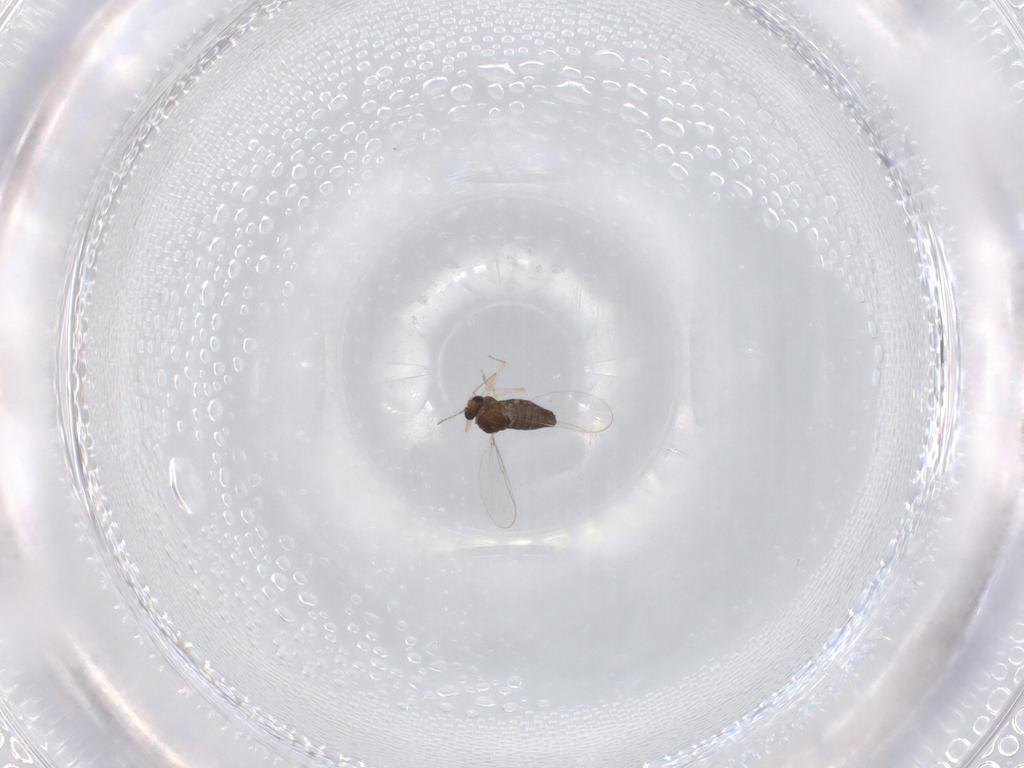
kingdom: Animalia
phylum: Arthropoda
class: Insecta
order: Diptera
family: Chironomidae
